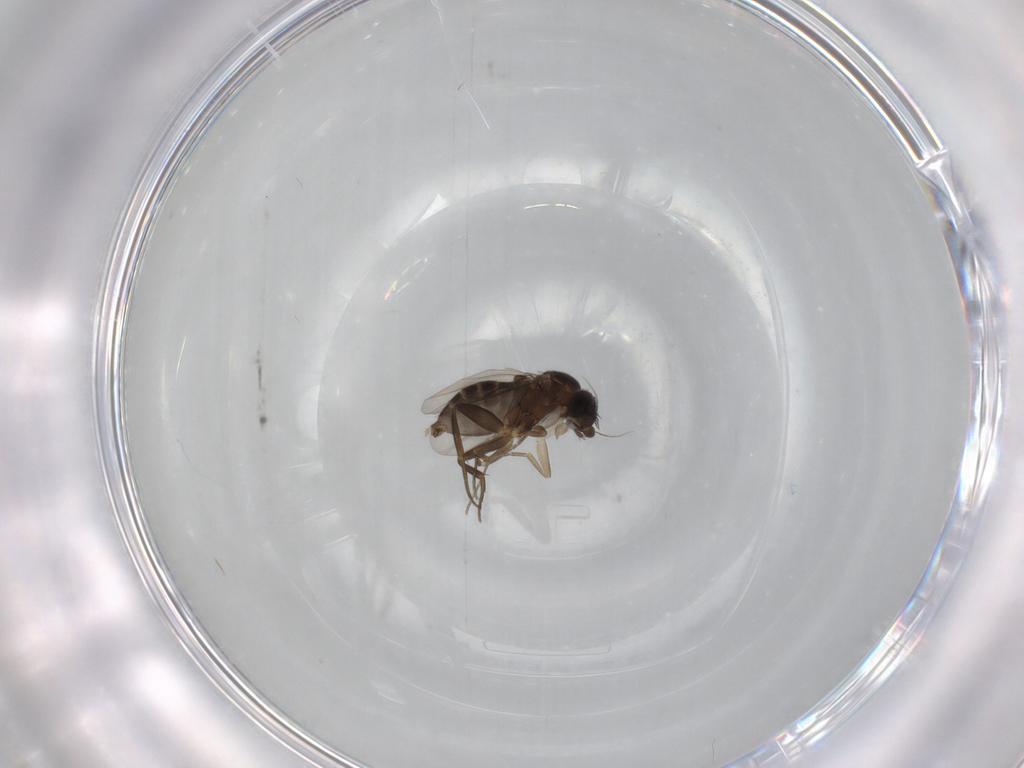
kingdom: Animalia
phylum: Arthropoda
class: Insecta
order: Diptera
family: Phoridae
